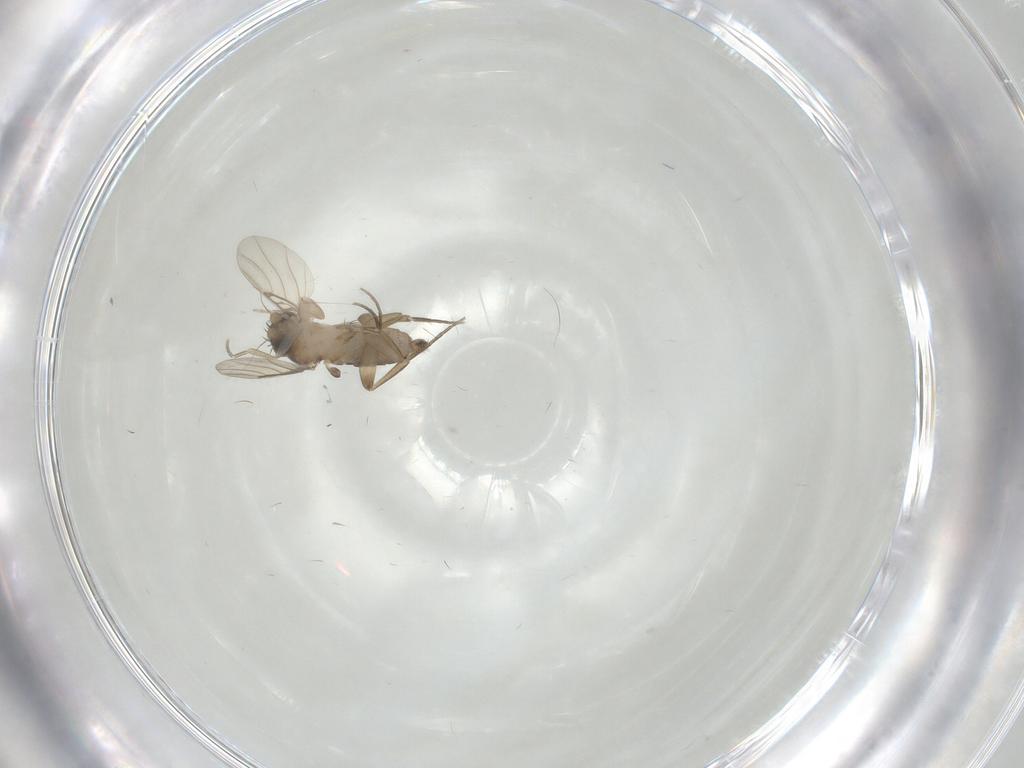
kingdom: Animalia
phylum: Arthropoda
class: Insecta
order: Diptera
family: Phoridae
